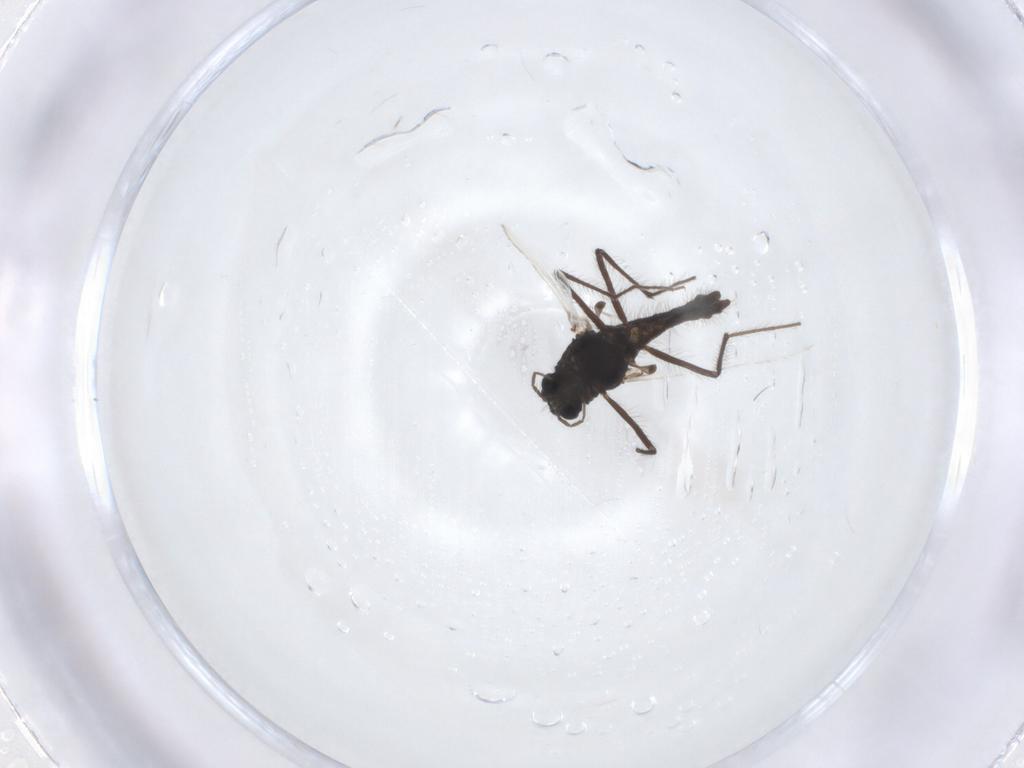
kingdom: Animalia
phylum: Arthropoda
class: Insecta
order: Diptera
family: Chironomidae
